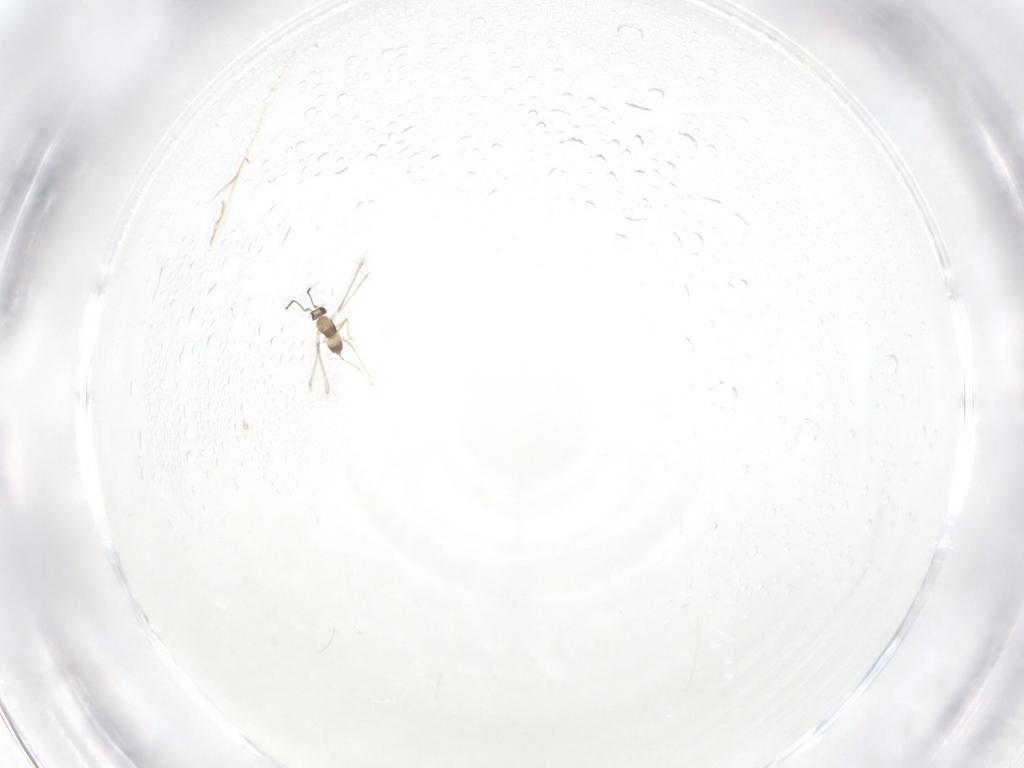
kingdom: Animalia
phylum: Arthropoda
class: Insecta
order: Hymenoptera
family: Mymaridae
